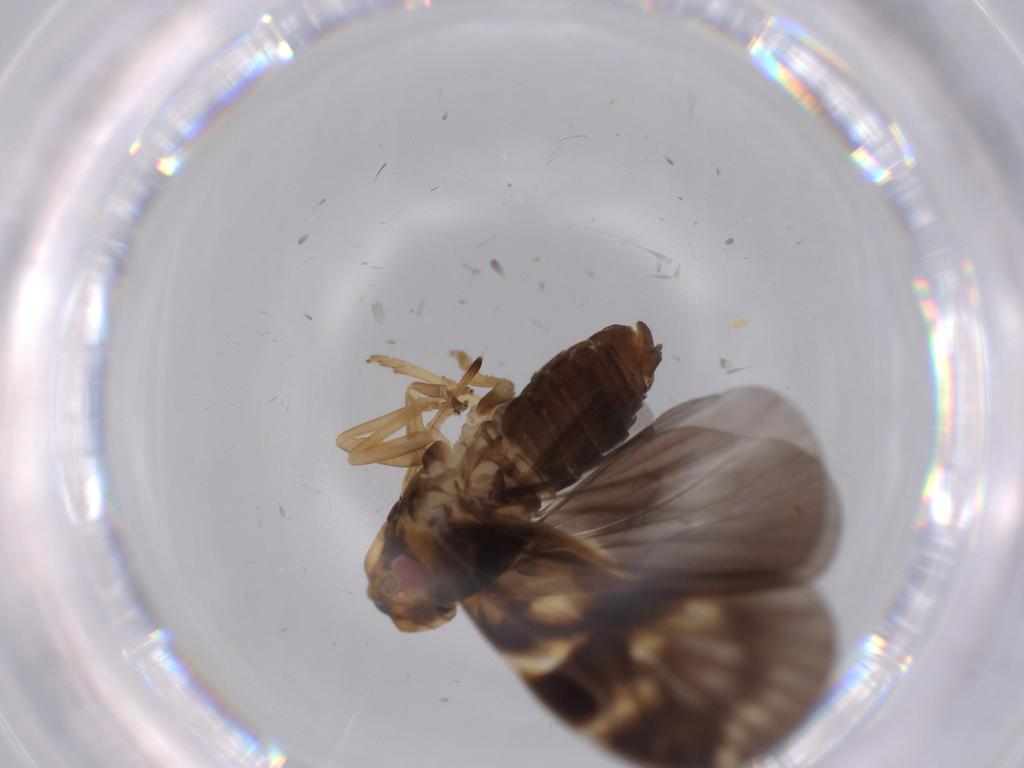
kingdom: Animalia
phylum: Arthropoda
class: Insecta
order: Hemiptera
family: Cixiidae
